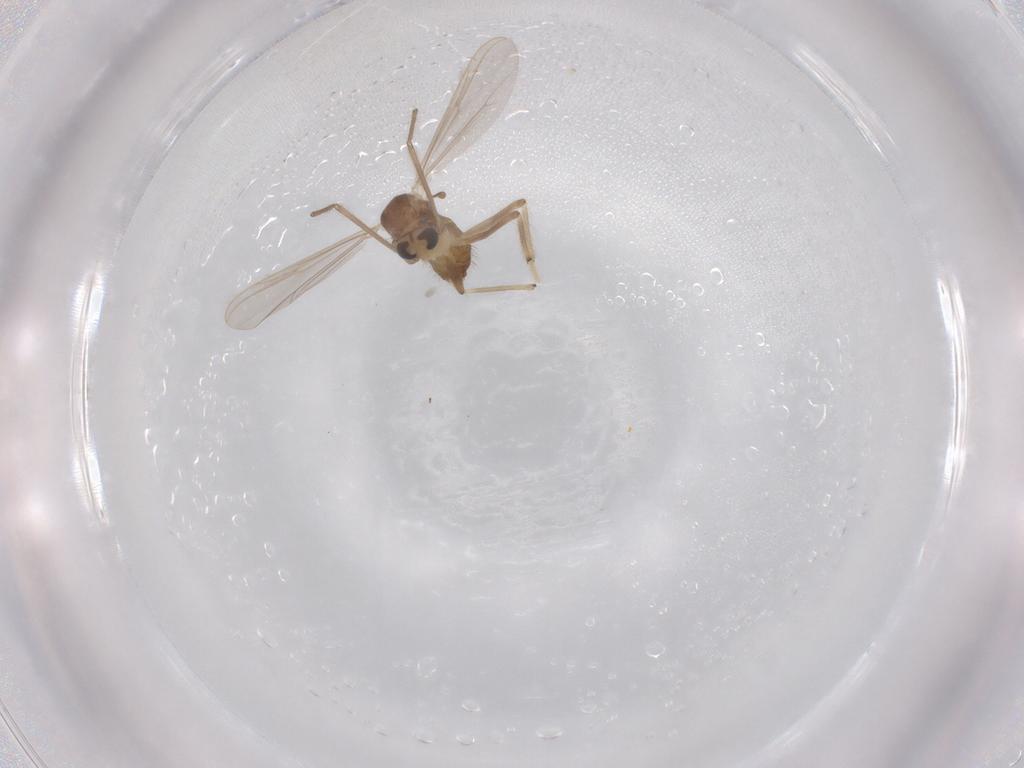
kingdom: Animalia
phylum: Arthropoda
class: Insecta
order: Diptera
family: Chironomidae
